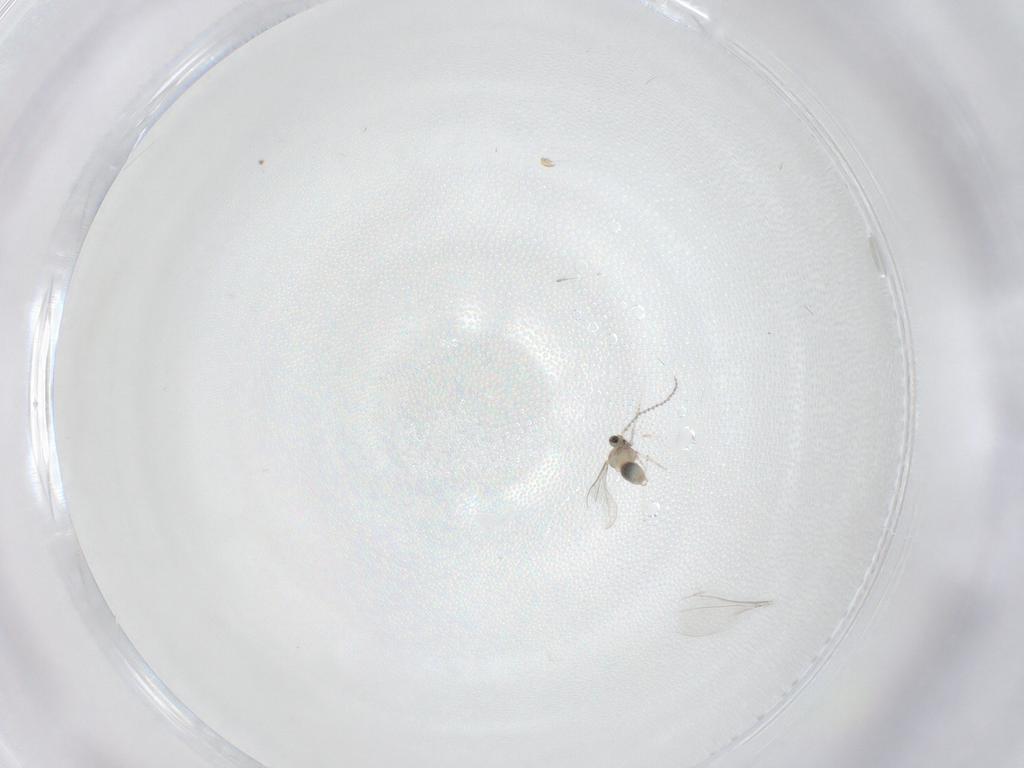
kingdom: Animalia
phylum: Arthropoda
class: Insecta
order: Diptera
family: Cecidomyiidae
